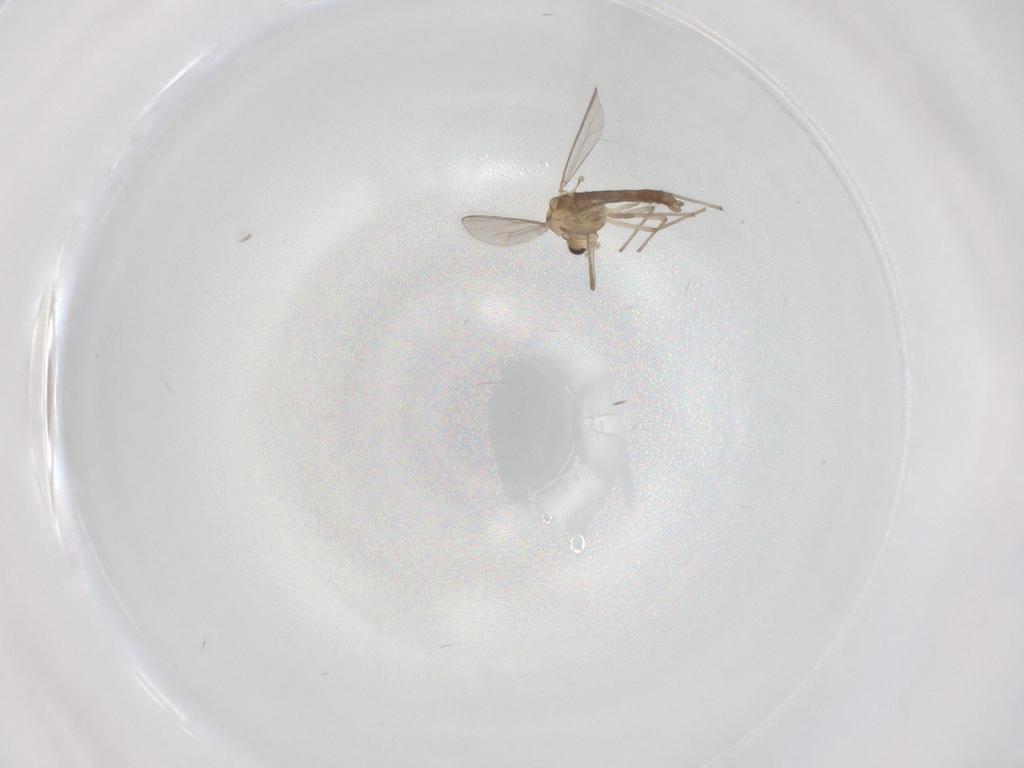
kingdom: Animalia
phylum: Arthropoda
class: Insecta
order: Diptera
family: Chironomidae
